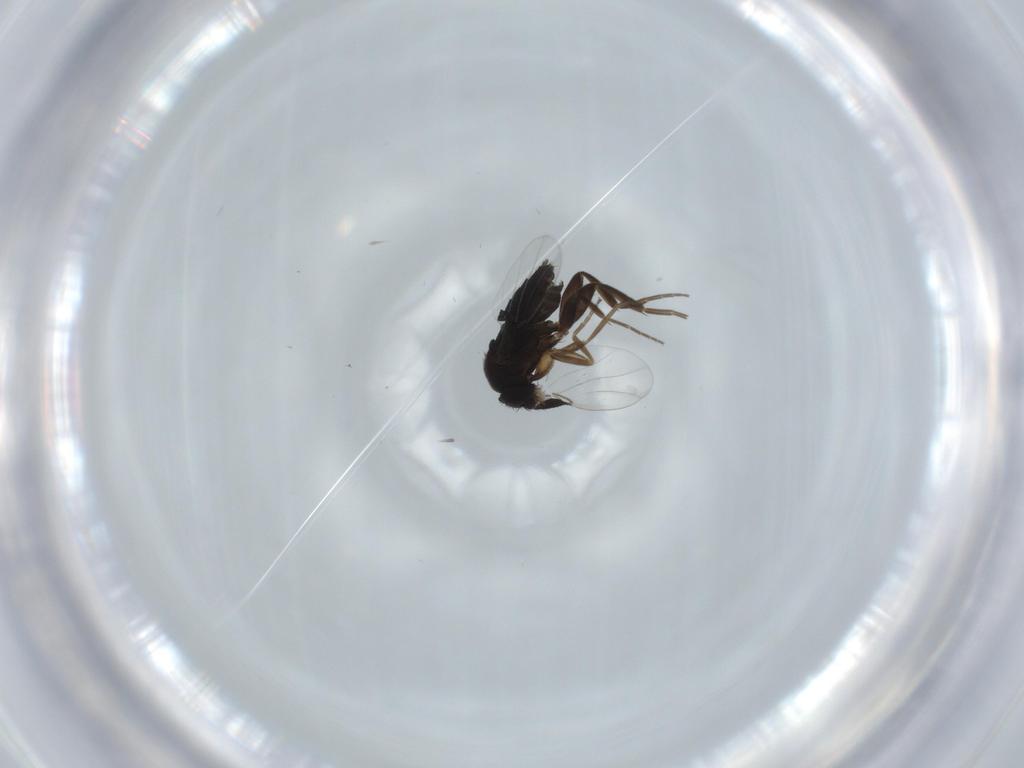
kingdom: Animalia
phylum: Arthropoda
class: Insecta
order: Diptera
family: Phoridae
